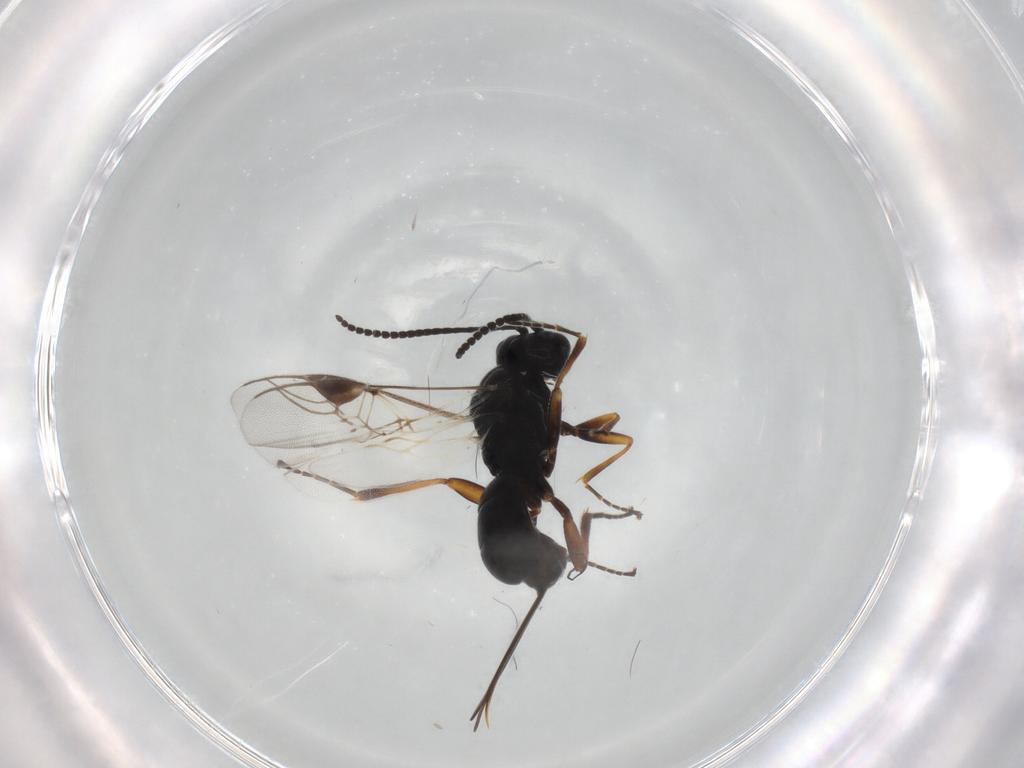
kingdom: Animalia
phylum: Arthropoda
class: Insecta
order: Hymenoptera
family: Braconidae
